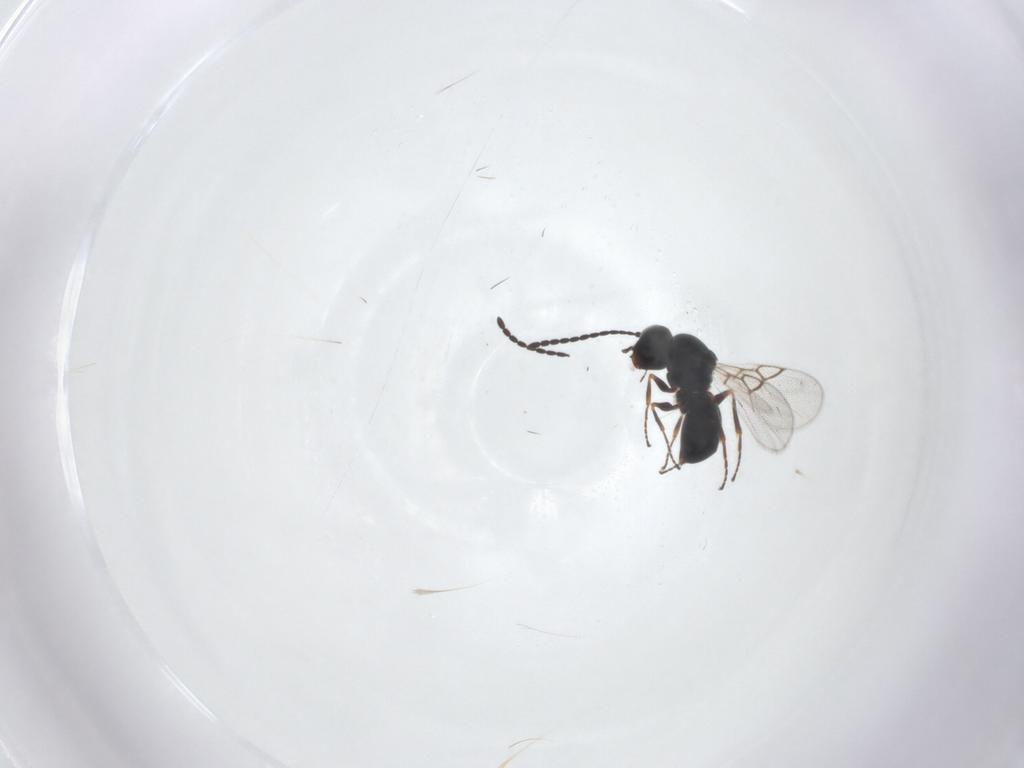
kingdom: Animalia
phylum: Arthropoda
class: Insecta
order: Hymenoptera
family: Figitidae
